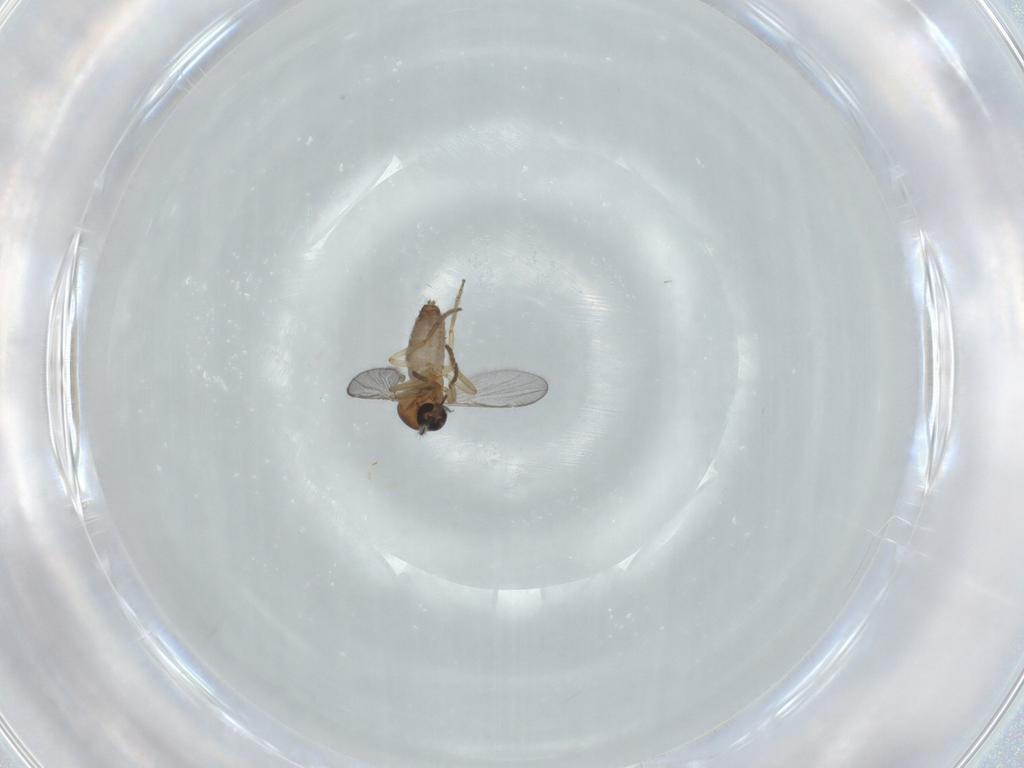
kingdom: Animalia
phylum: Arthropoda
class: Insecta
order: Diptera
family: Ceratopogonidae
